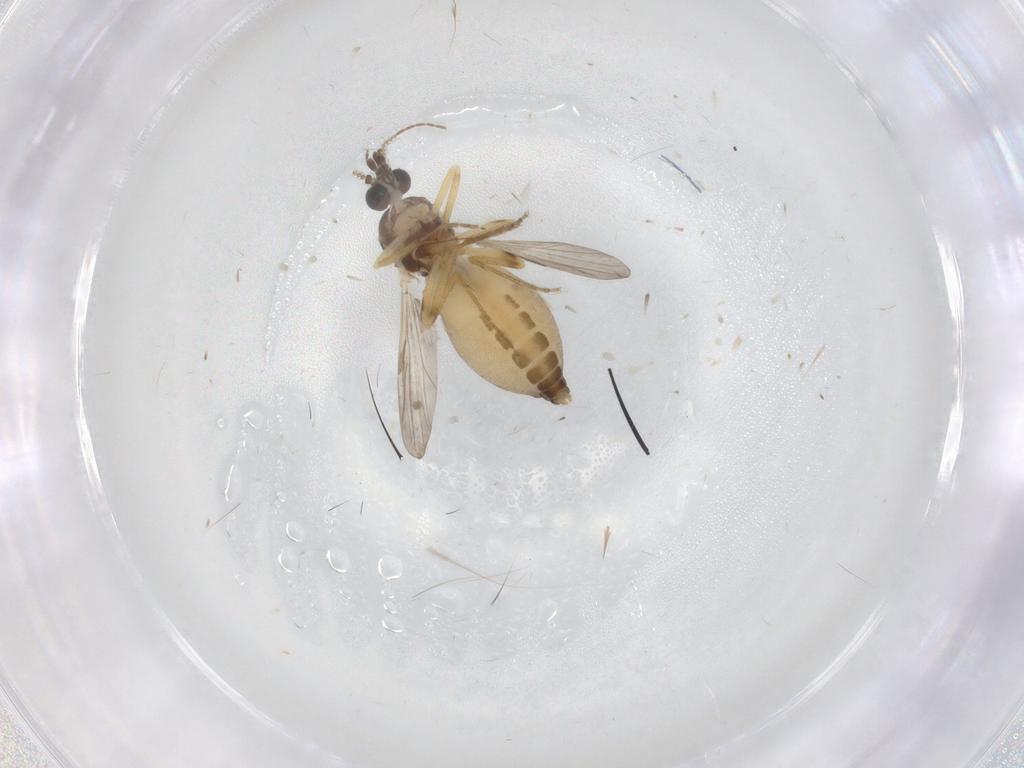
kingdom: Animalia
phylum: Arthropoda
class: Insecta
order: Diptera
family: Ceratopogonidae
